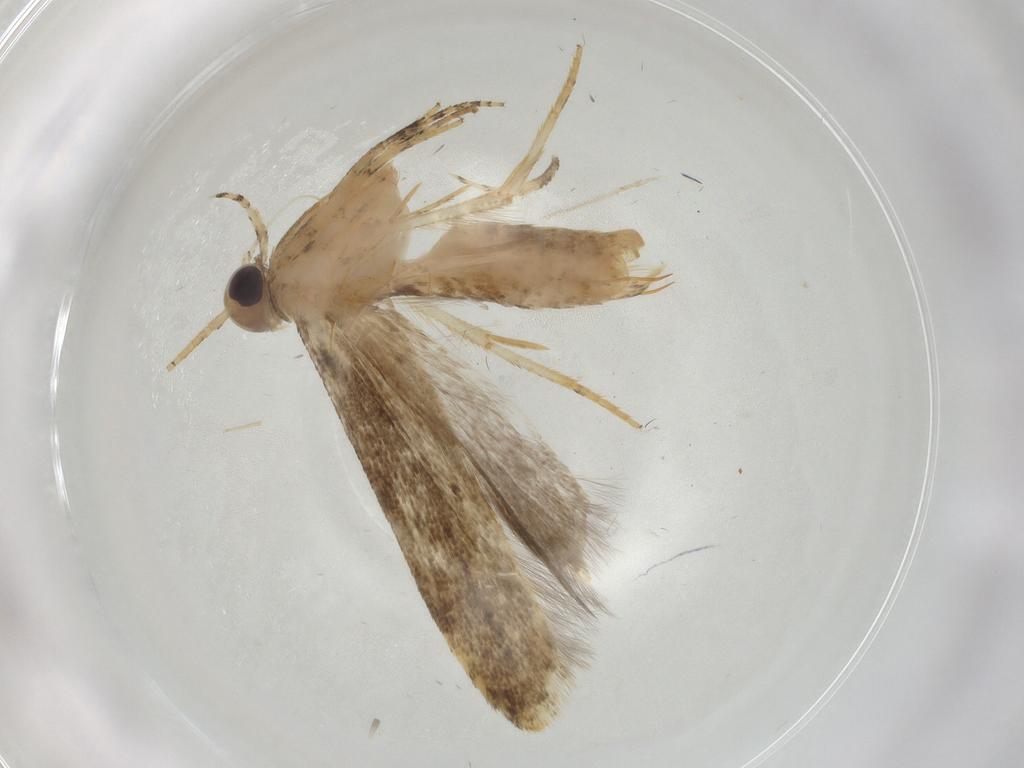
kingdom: Animalia
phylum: Arthropoda
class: Insecta
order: Lepidoptera
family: Gelechiidae
